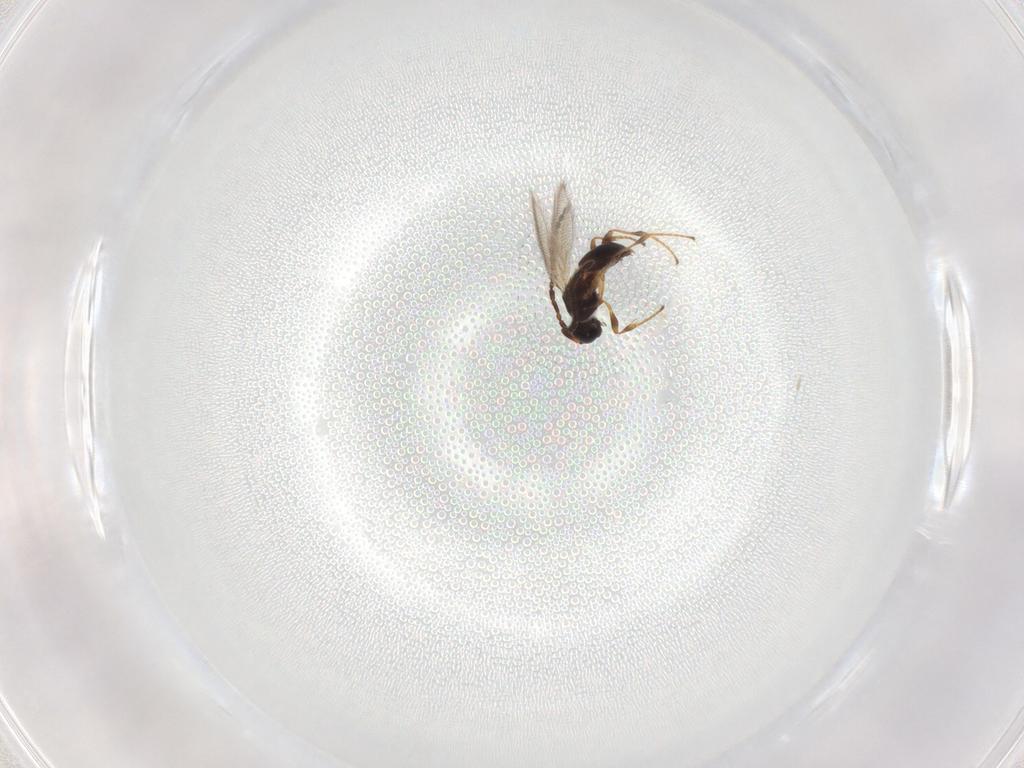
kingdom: Animalia
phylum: Arthropoda
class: Insecta
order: Hymenoptera
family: Diapriidae
